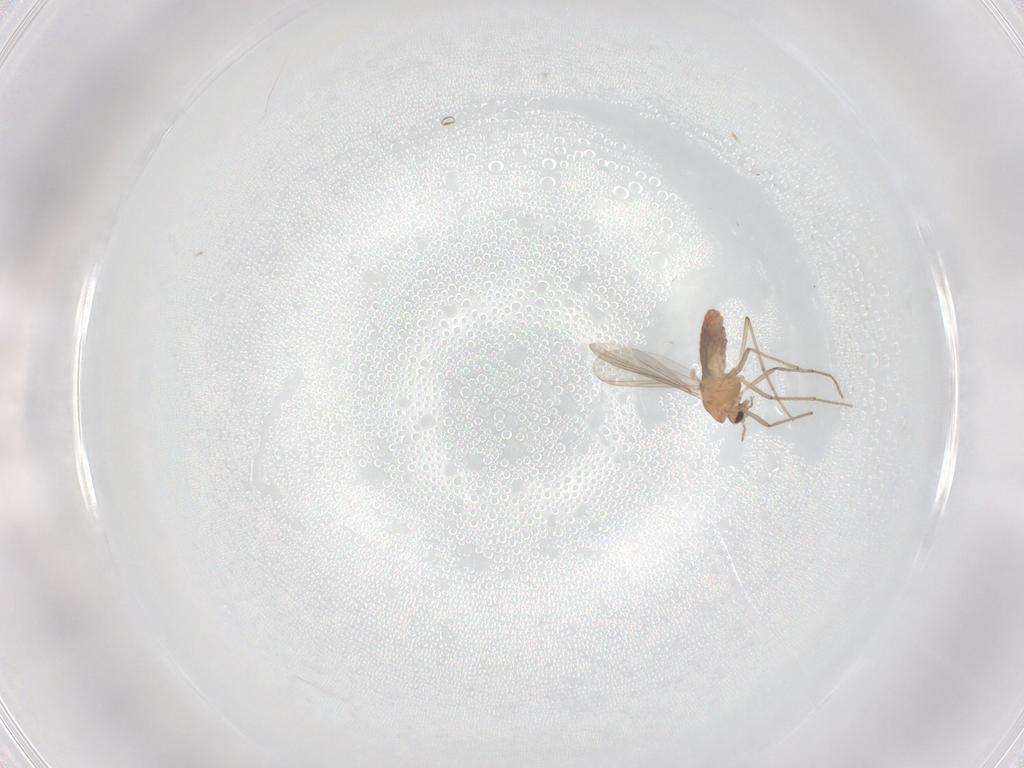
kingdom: Animalia
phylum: Arthropoda
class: Insecta
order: Diptera
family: Chironomidae
